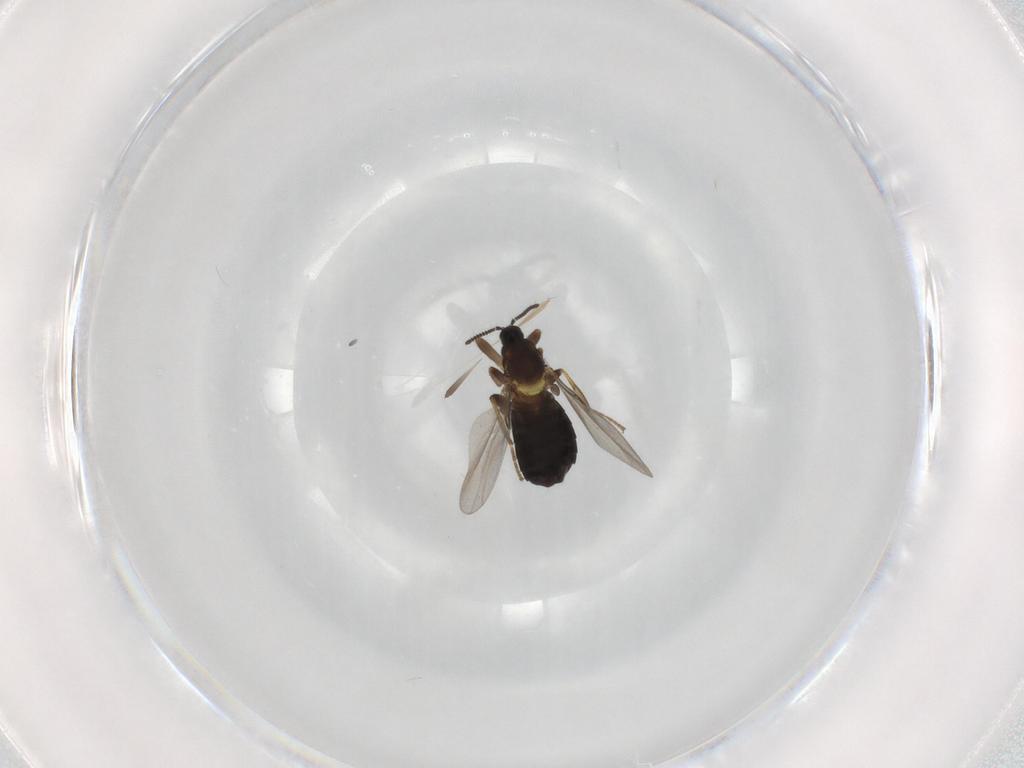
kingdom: Animalia
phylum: Arthropoda
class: Insecta
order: Diptera
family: Scatopsidae
